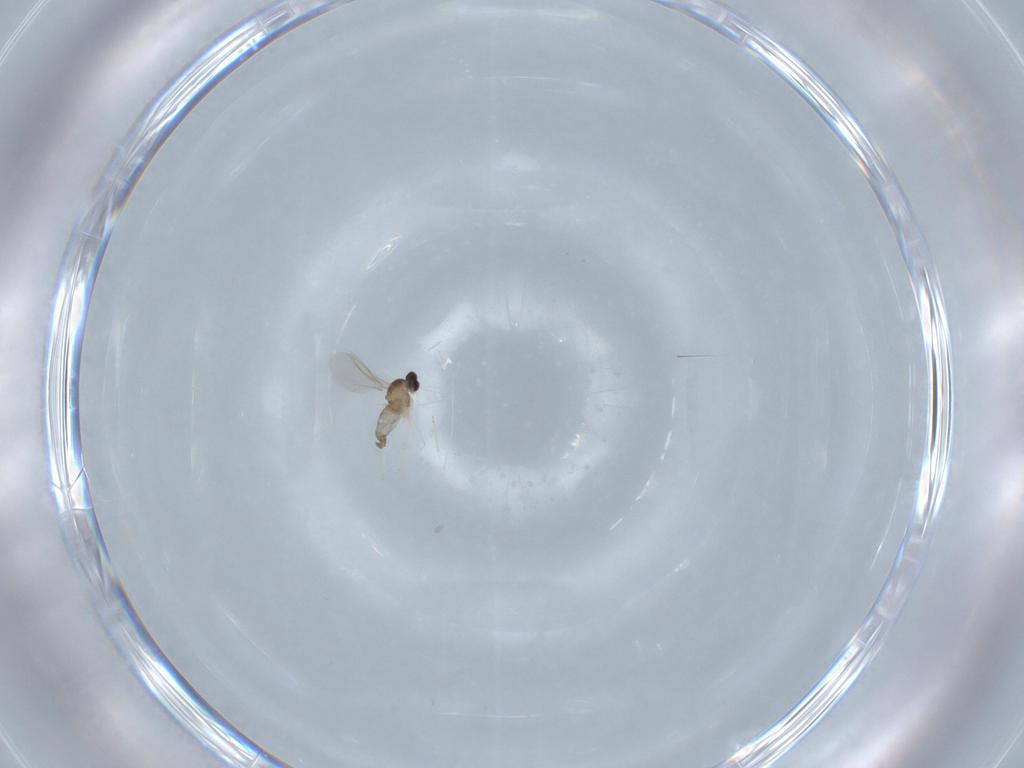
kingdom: Animalia
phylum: Arthropoda
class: Insecta
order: Diptera
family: Cecidomyiidae
